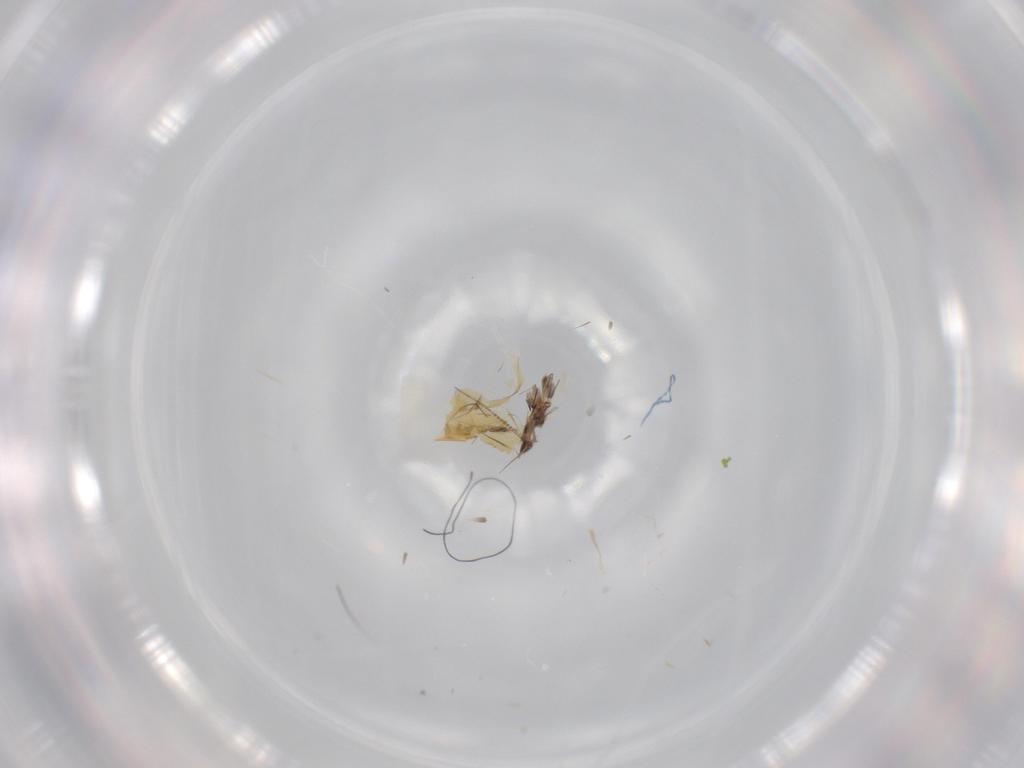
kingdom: Animalia
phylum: Arthropoda
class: Insecta
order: Diptera
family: Chironomidae
